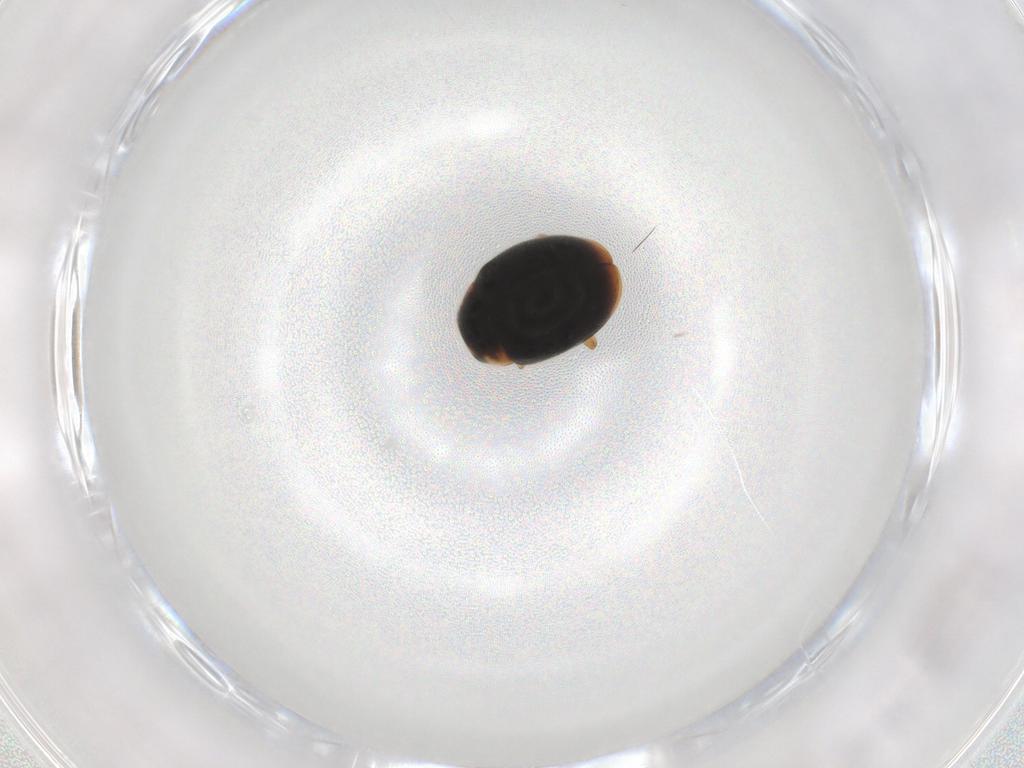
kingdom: Animalia
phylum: Arthropoda
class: Insecta
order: Coleoptera
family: Coccinellidae
